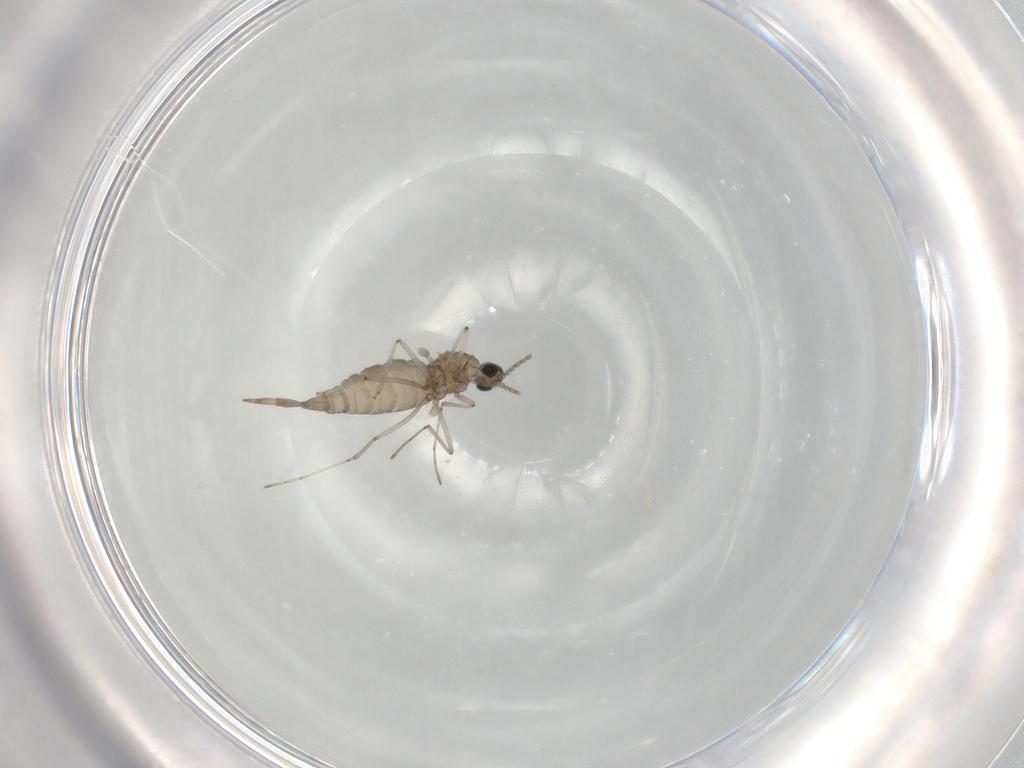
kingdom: Animalia
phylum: Arthropoda
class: Insecta
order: Diptera
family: Cecidomyiidae
